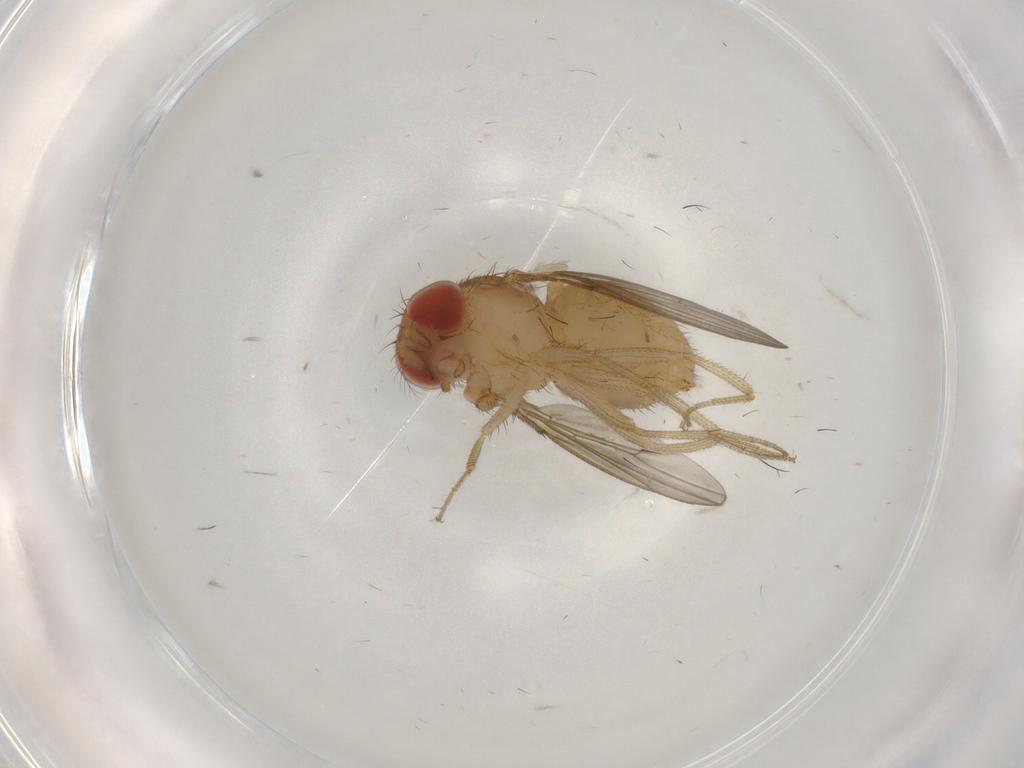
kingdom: Animalia
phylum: Arthropoda
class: Insecta
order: Diptera
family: Drosophilidae
